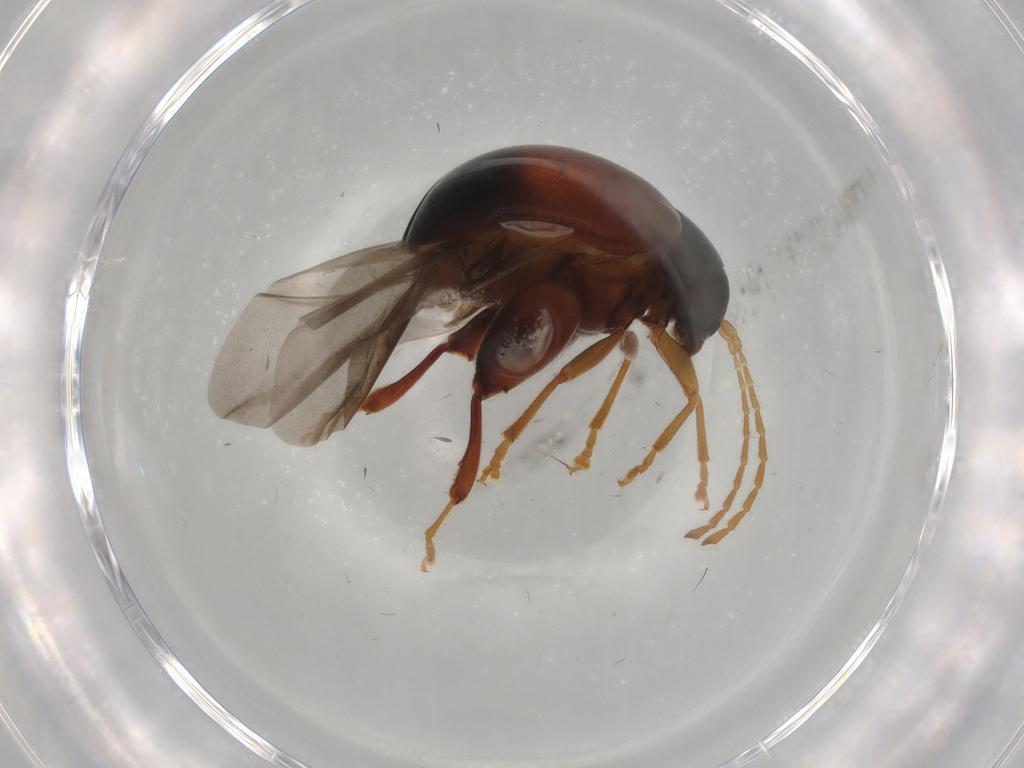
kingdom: Animalia
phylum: Arthropoda
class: Insecta
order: Coleoptera
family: Chrysomelidae
